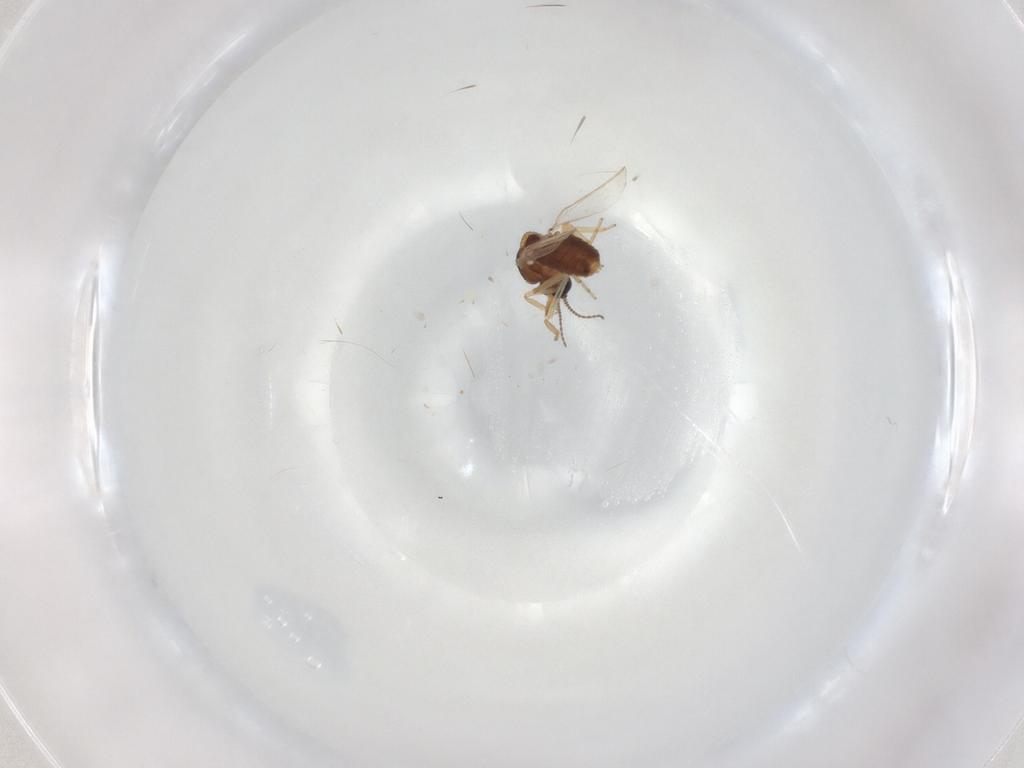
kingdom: Animalia
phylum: Arthropoda
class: Insecta
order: Diptera
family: Ceratopogonidae
